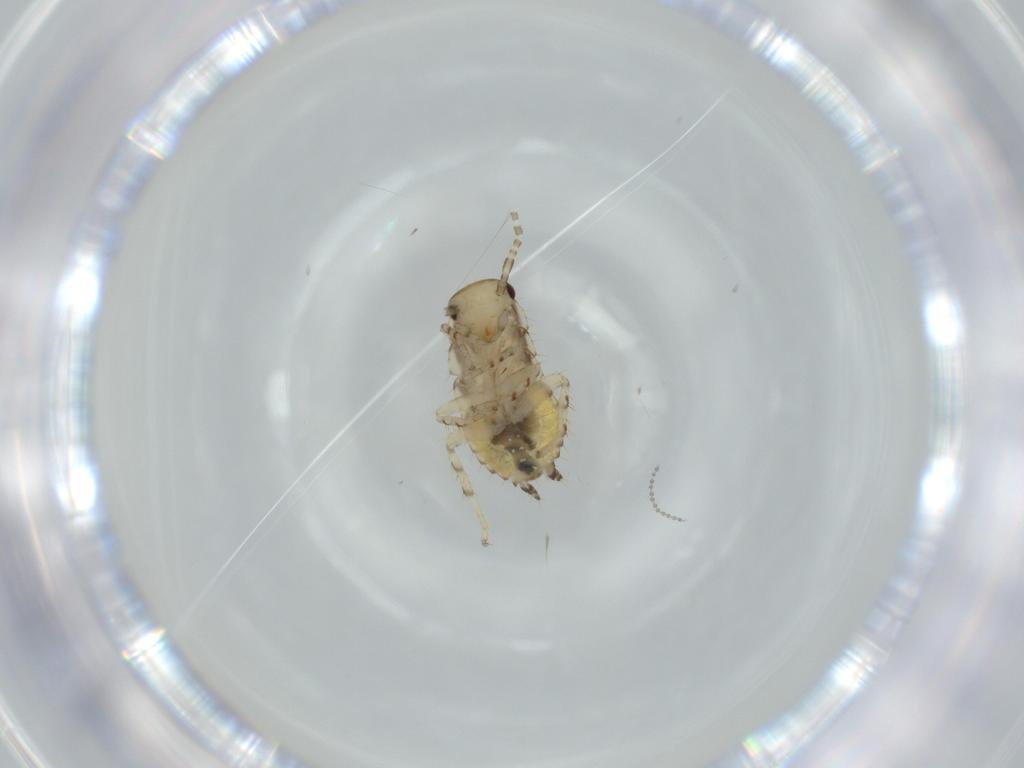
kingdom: Animalia
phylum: Arthropoda
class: Insecta
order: Blattodea
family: Ectobiidae
